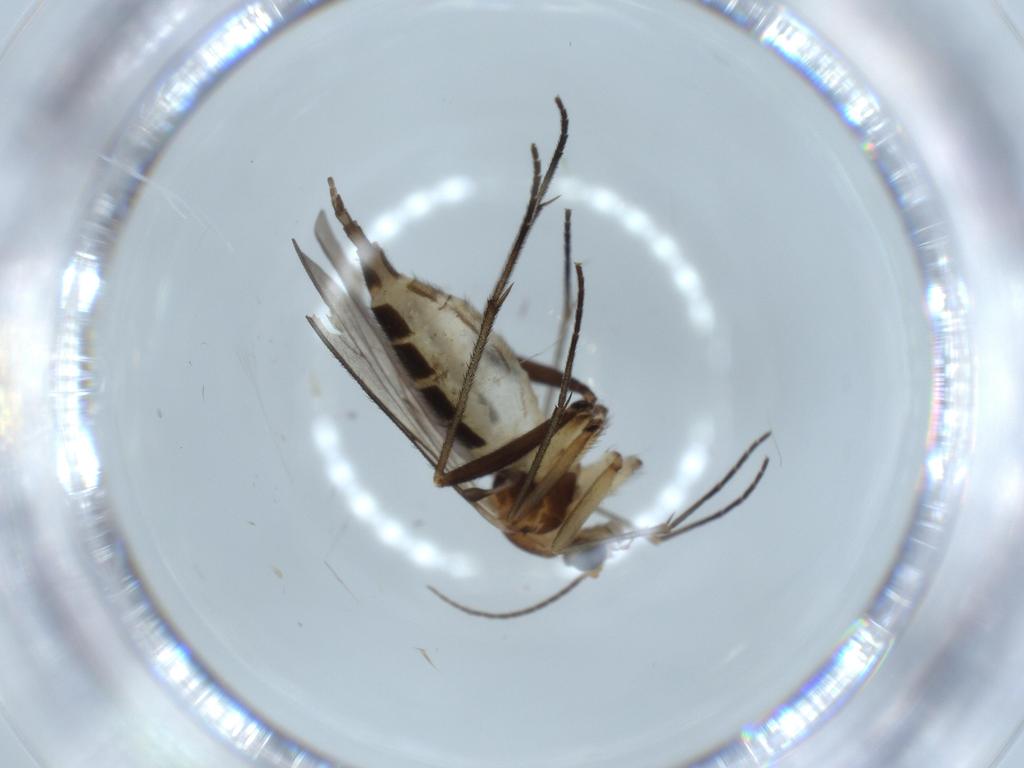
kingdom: Animalia
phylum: Arthropoda
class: Insecta
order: Diptera
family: Sciaridae
